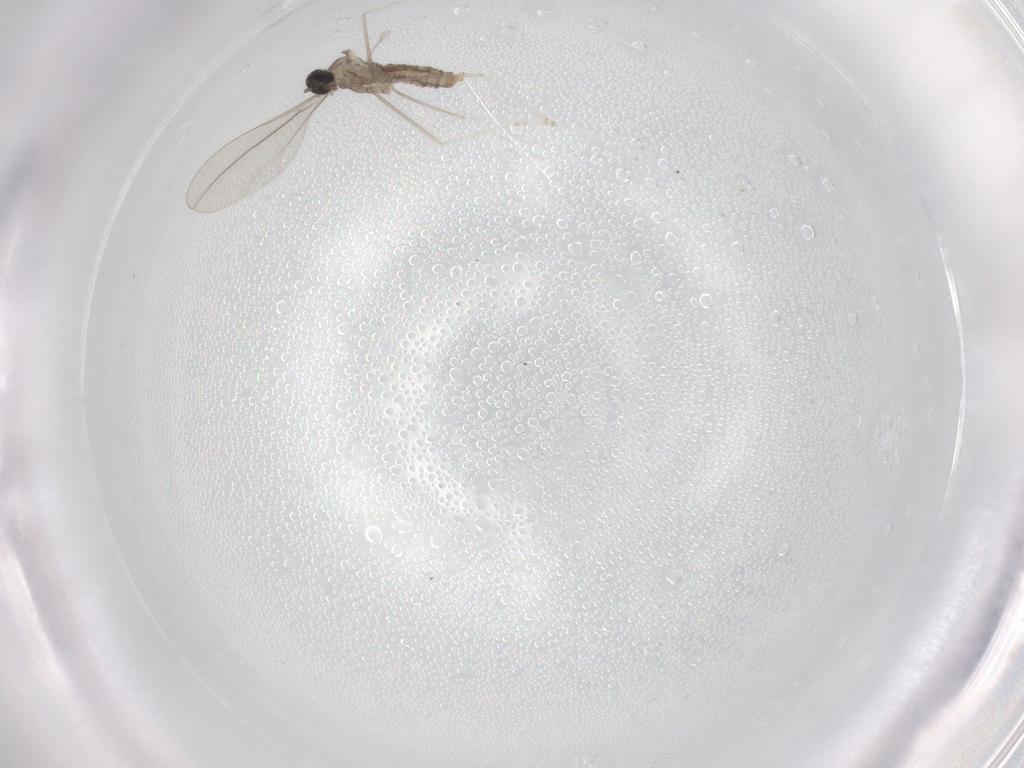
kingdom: Animalia
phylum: Arthropoda
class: Insecta
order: Diptera
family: Cecidomyiidae
